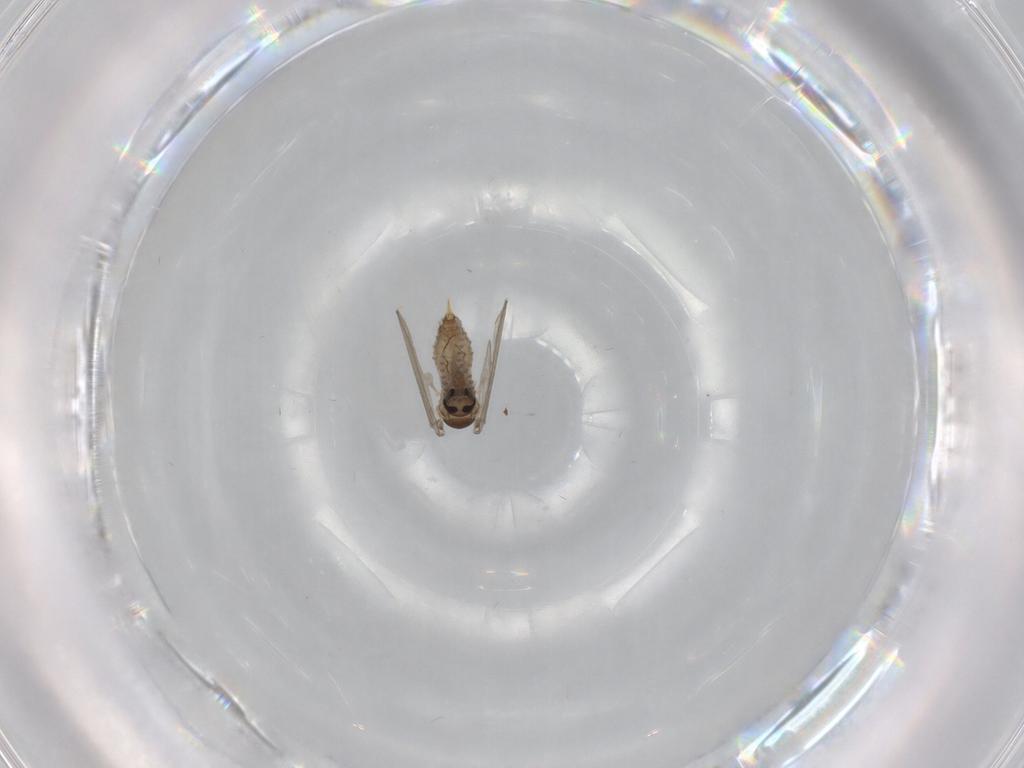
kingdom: Animalia
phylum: Arthropoda
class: Insecta
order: Diptera
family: Psychodidae
